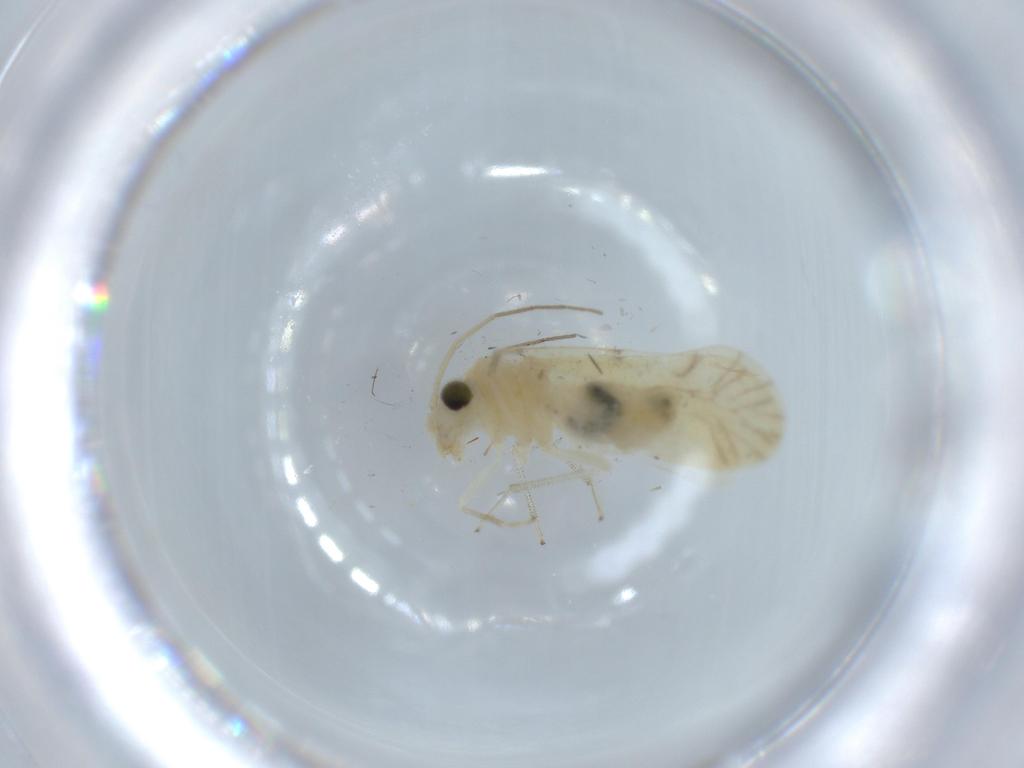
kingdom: Animalia
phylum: Arthropoda
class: Insecta
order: Psocodea
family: Caeciliusidae
